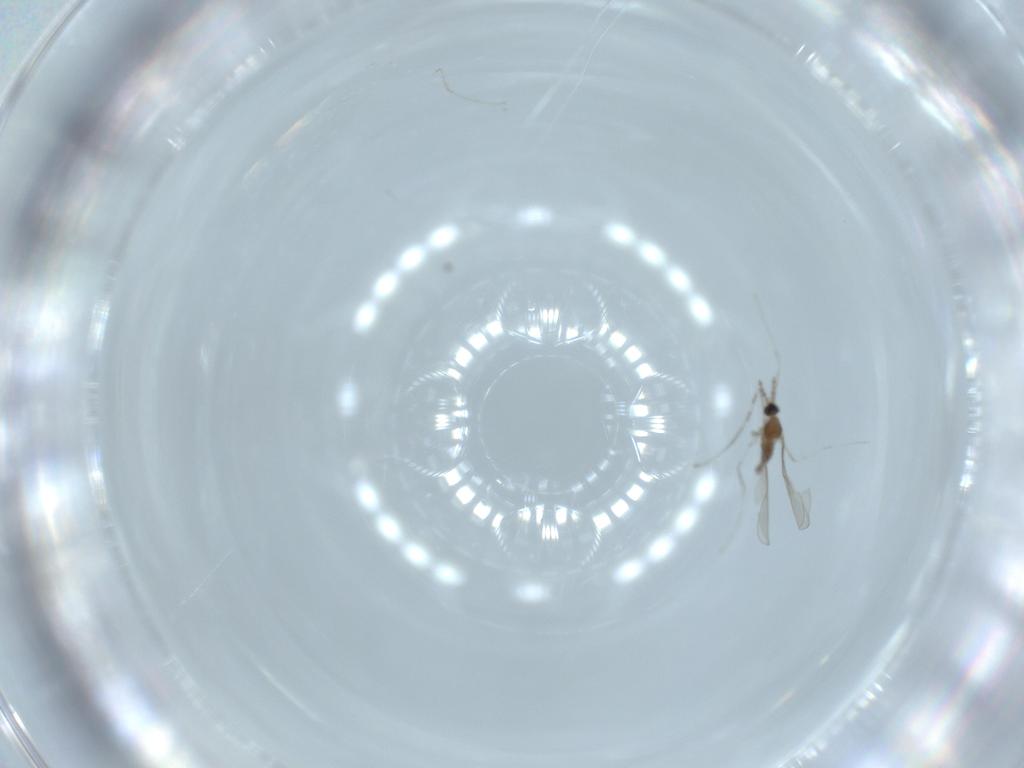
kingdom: Animalia
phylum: Arthropoda
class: Insecta
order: Diptera
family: Cecidomyiidae
